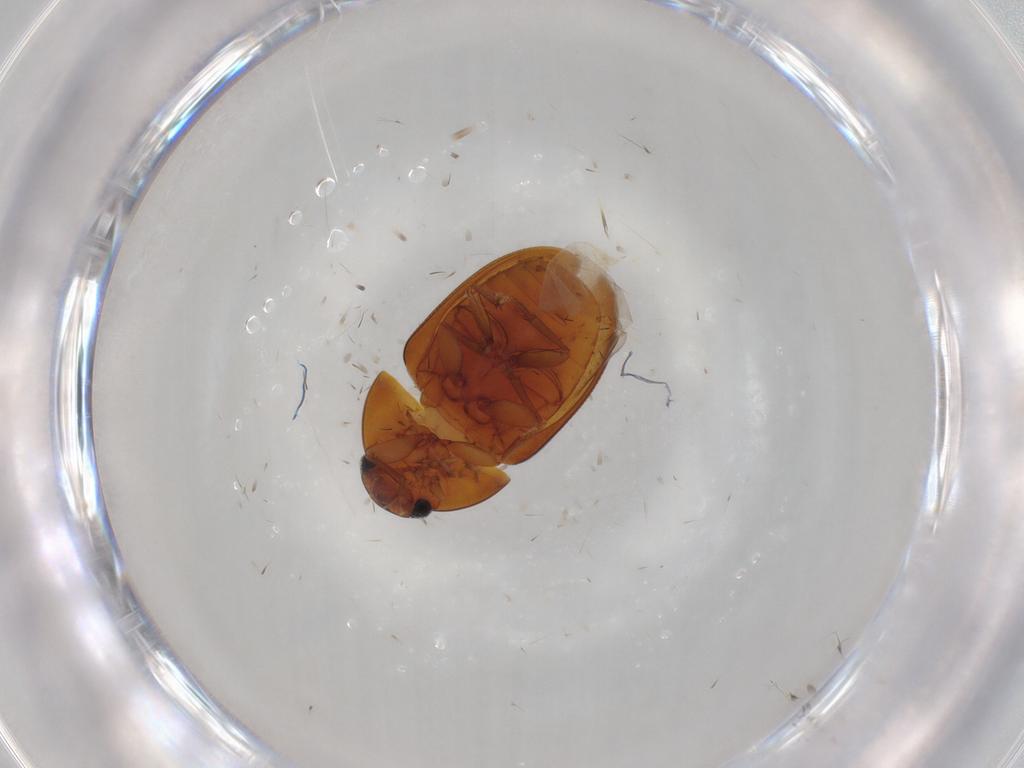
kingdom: Animalia
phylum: Arthropoda
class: Insecta
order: Coleoptera
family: Phalacridae
